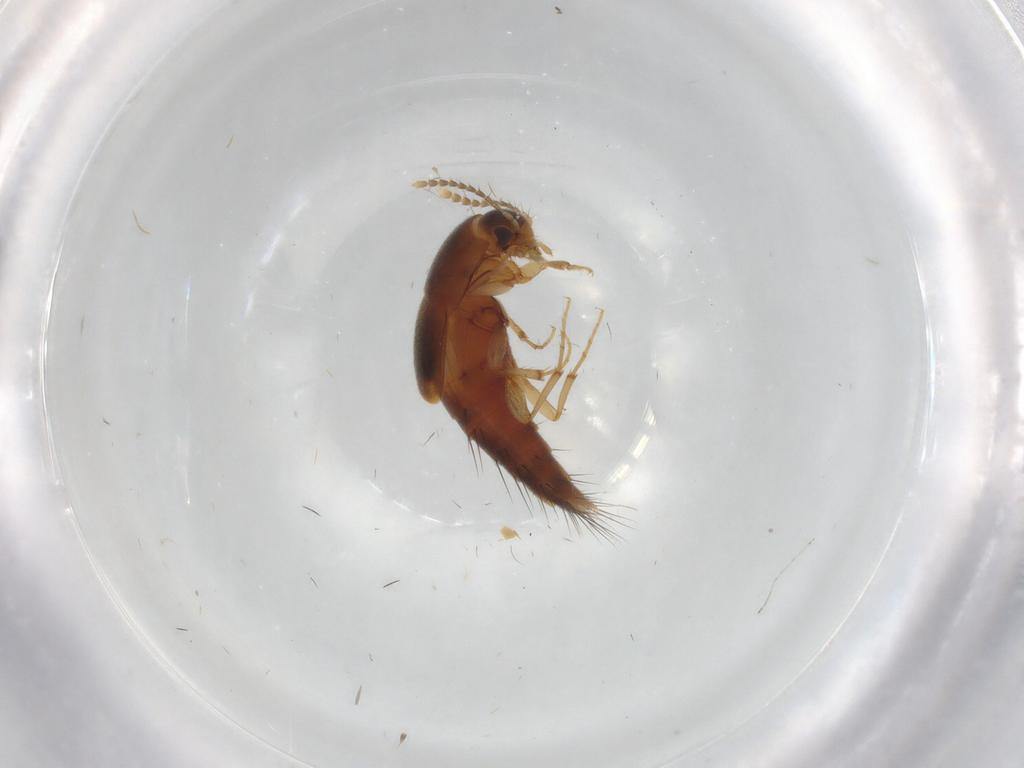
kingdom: Animalia
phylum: Arthropoda
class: Insecta
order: Coleoptera
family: Staphylinidae
